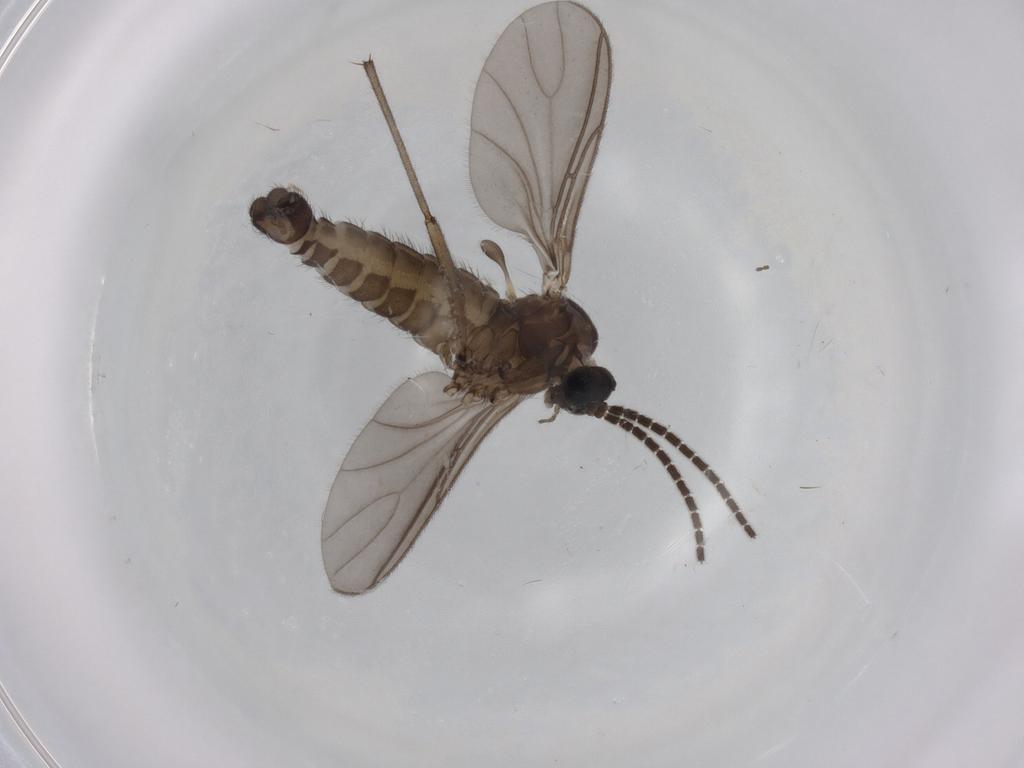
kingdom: Animalia
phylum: Arthropoda
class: Insecta
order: Diptera
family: Sciaridae
